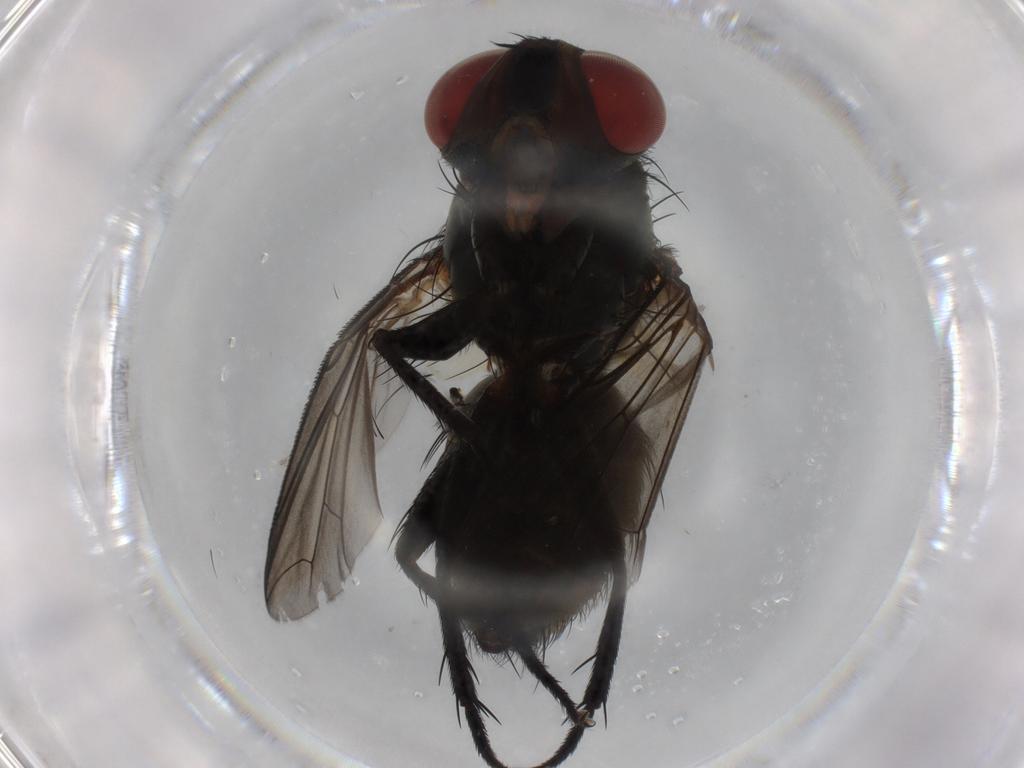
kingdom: Animalia
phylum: Arthropoda
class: Insecta
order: Diptera
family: Sarcophagidae
